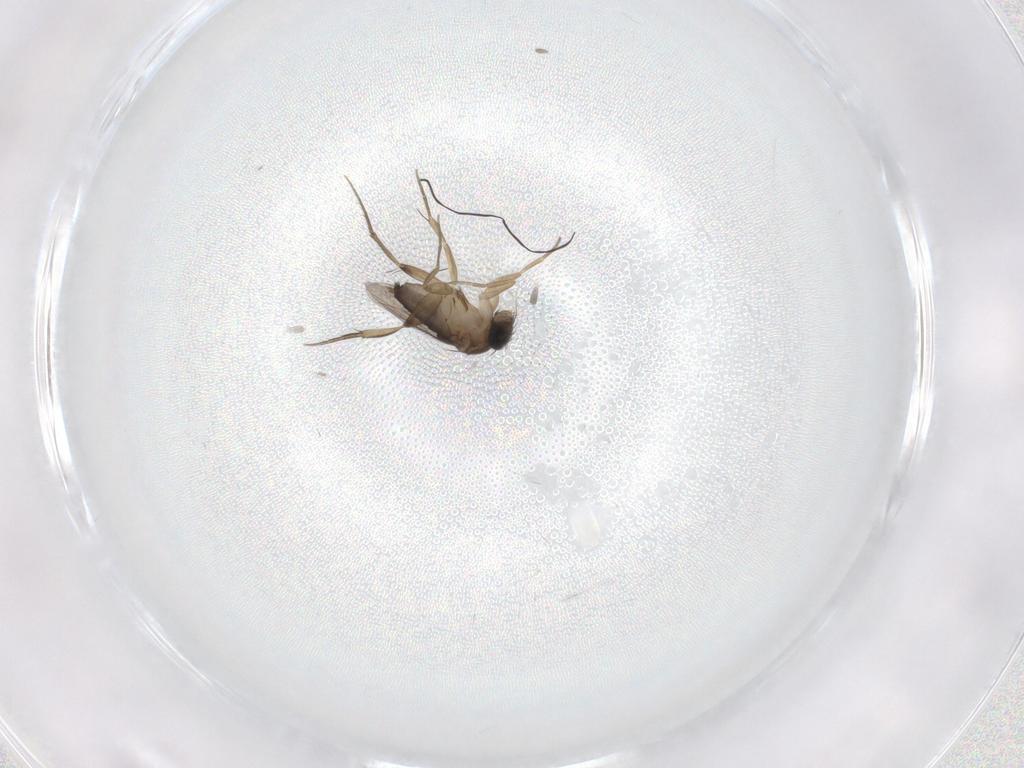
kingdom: Animalia
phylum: Arthropoda
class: Insecta
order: Diptera
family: Phoridae
